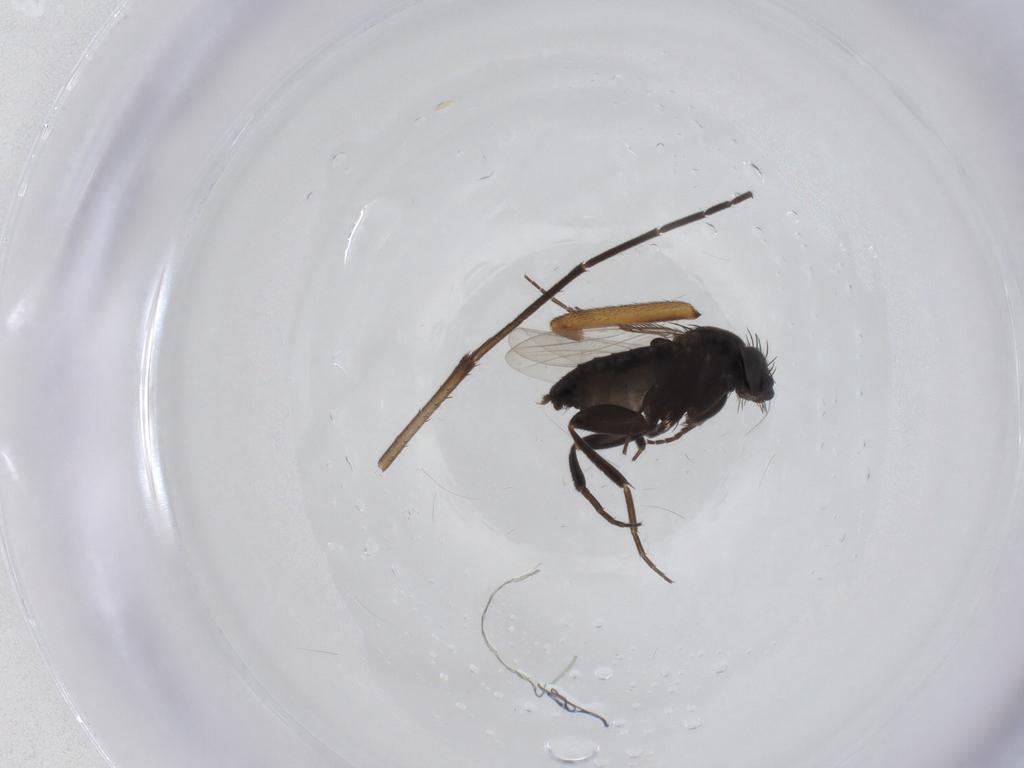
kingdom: Animalia
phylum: Arthropoda
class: Insecta
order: Diptera
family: Phoridae
